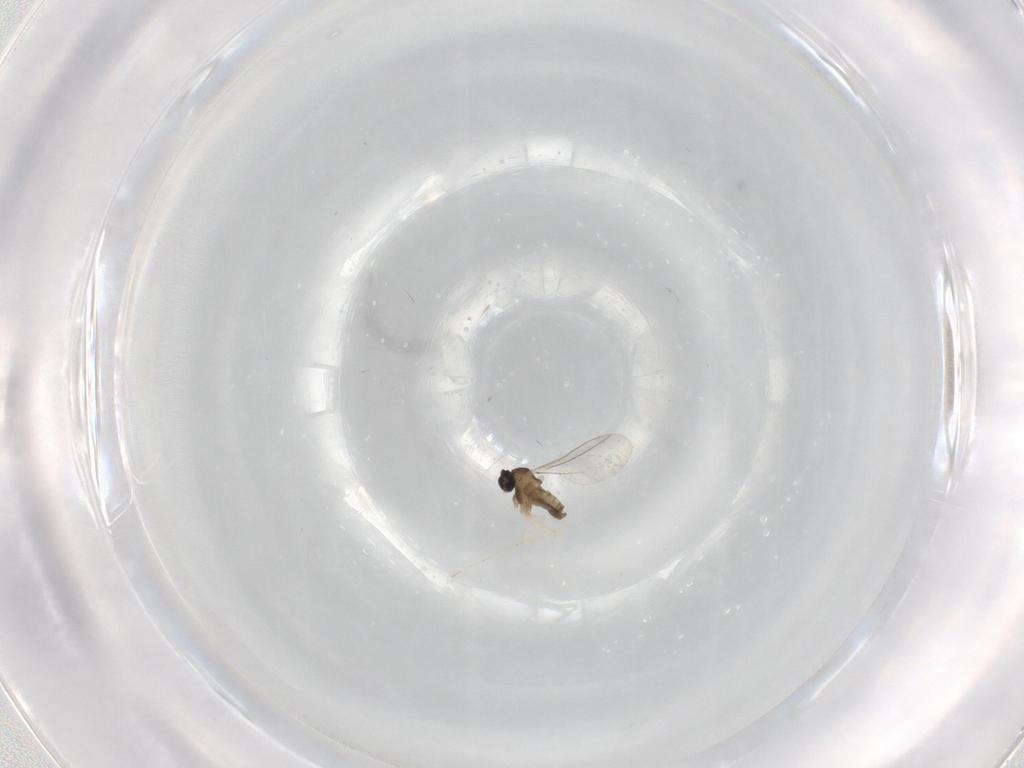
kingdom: Animalia
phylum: Arthropoda
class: Insecta
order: Diptera
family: Cecidomyiidae
